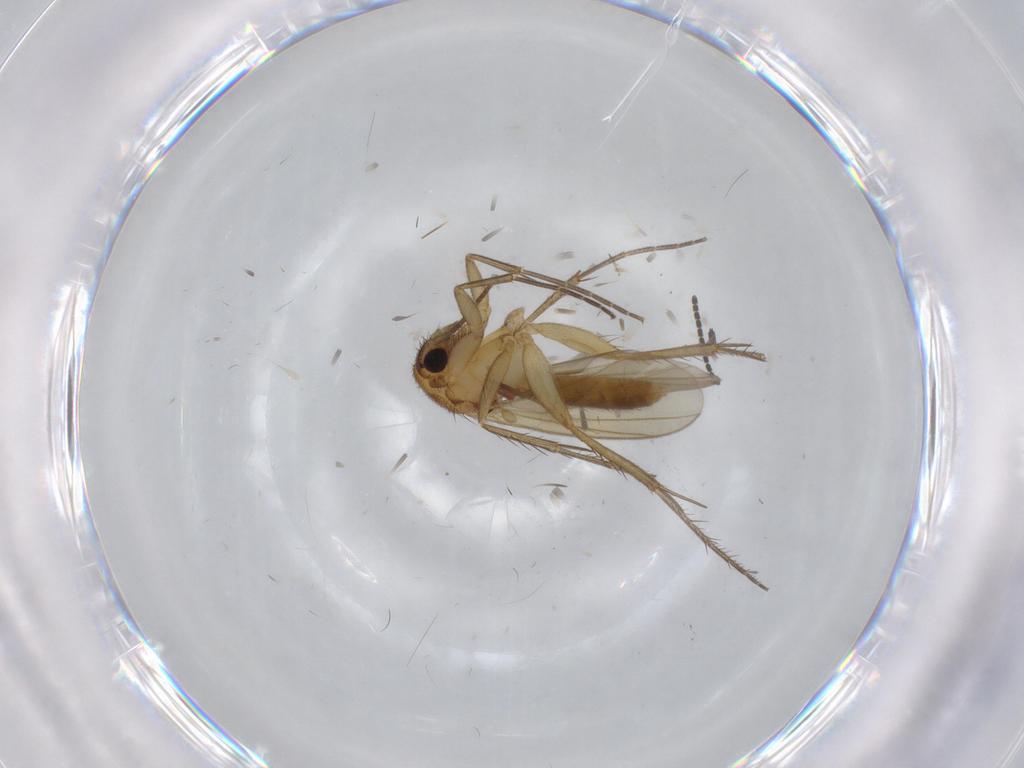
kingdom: Animalia
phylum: Arthropoda
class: Insecta
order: Diptera
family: Mycetophilidae
